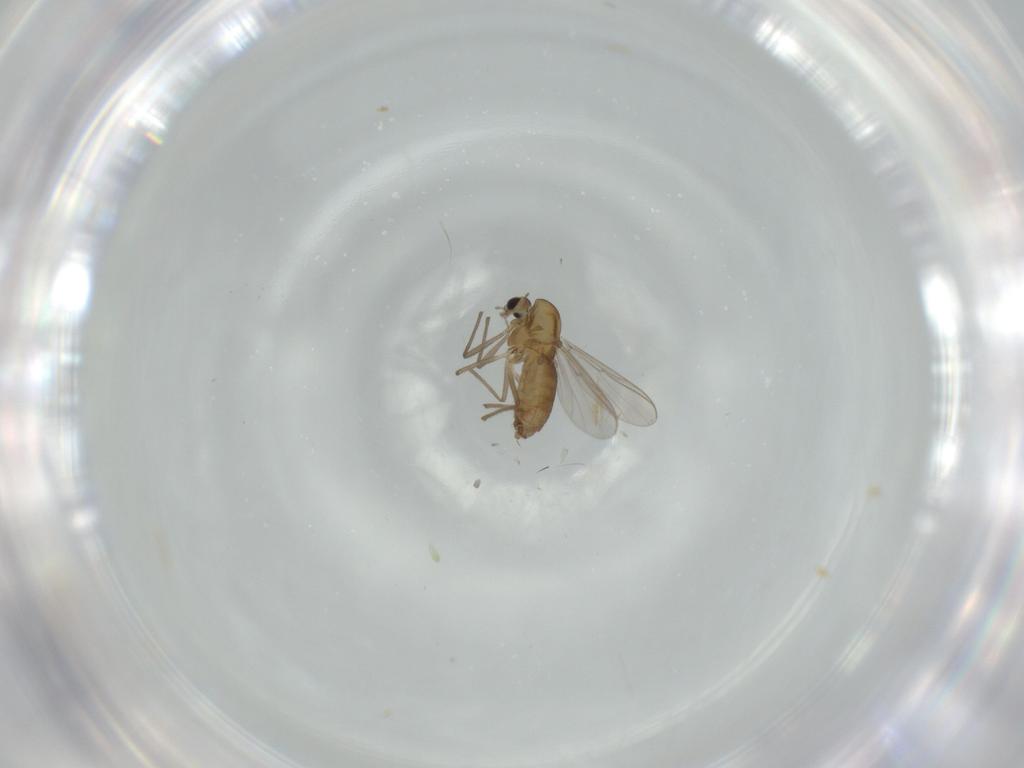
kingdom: Animalia
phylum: Arthropoda
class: Insecta
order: Diptera
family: Chironomidae
